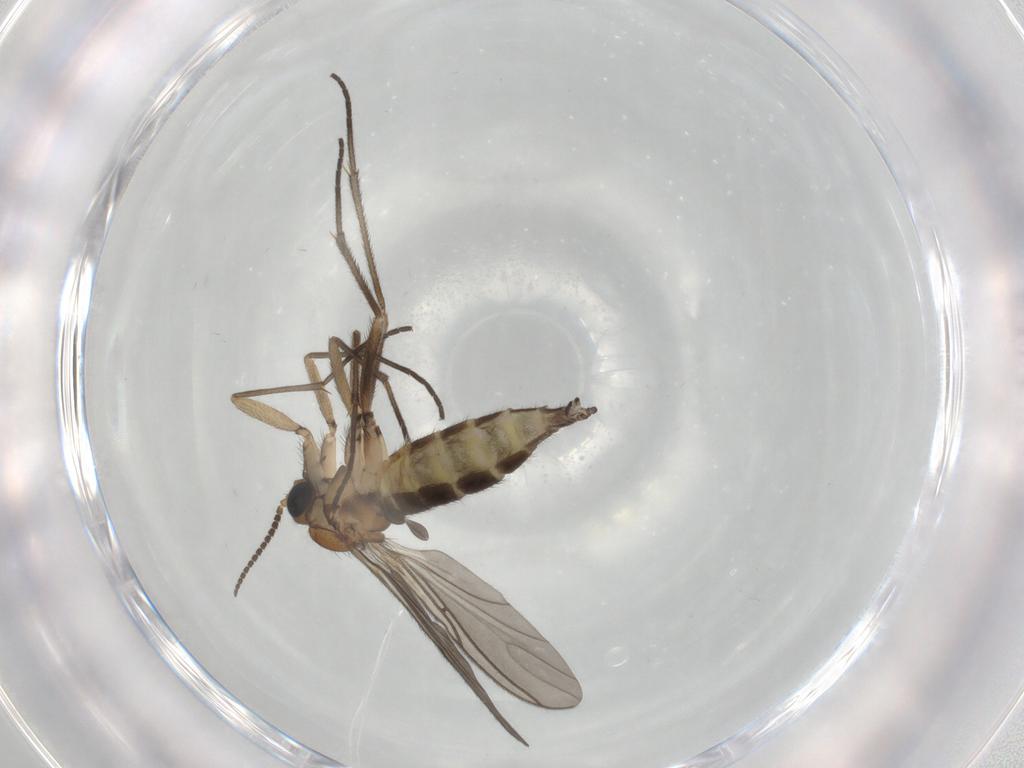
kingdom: Animalia
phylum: Arthropoda
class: Insecta
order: Diptera
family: Sciaridae
